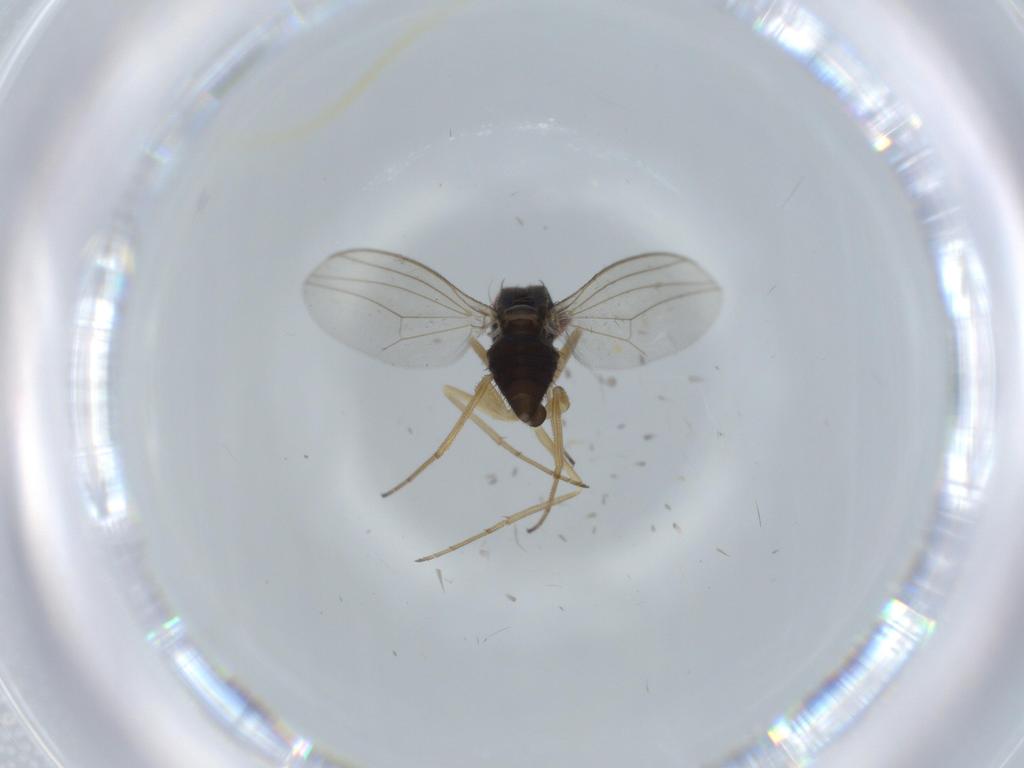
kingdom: Animalia
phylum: Arthropoda
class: Insecta
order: Diptera
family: Dolichopodidae
